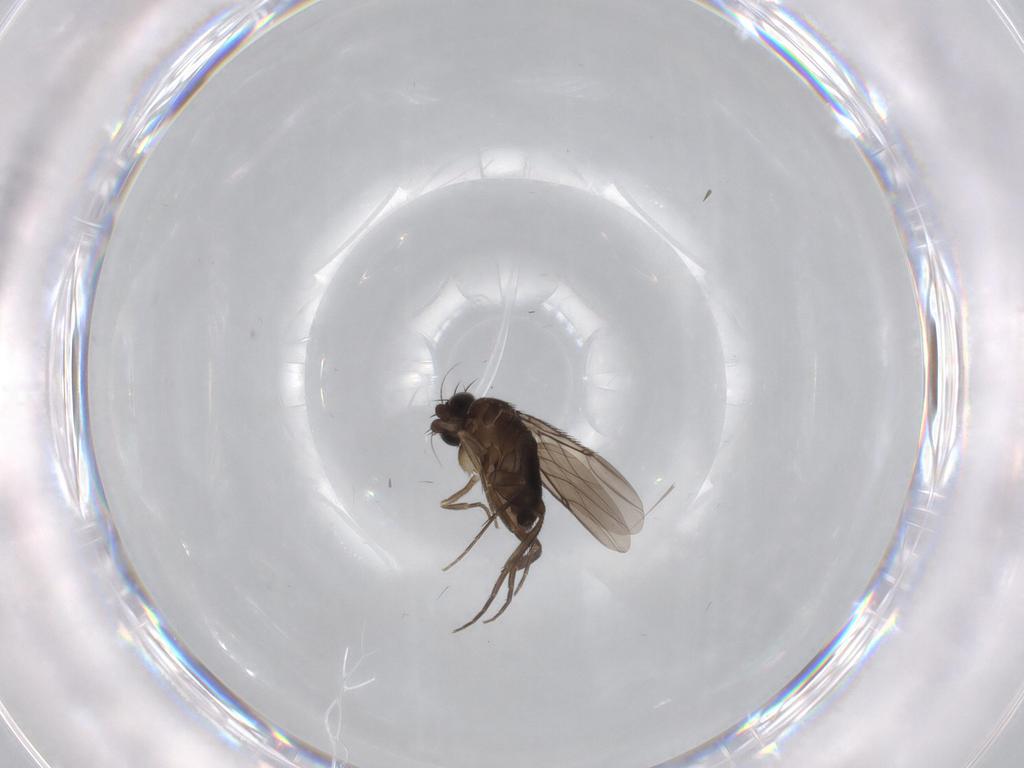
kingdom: Animalia
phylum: Arthropoda
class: Insecta
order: Diptera
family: Phoridae
